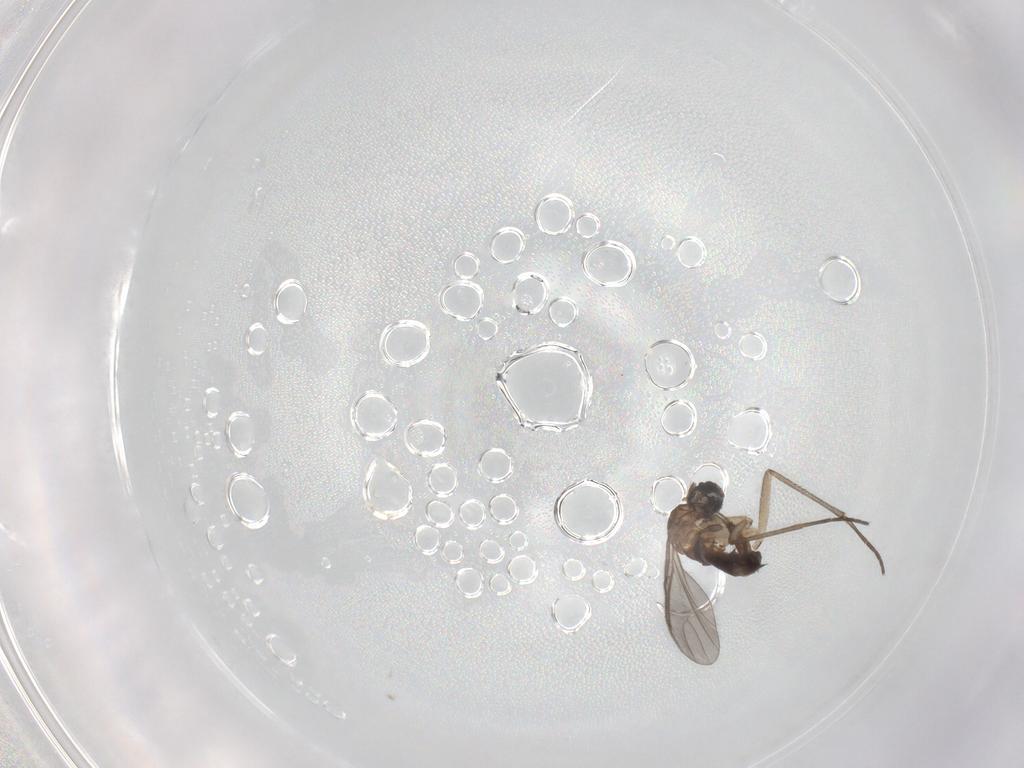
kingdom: Animalia
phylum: Arthropoda
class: Insecta
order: Diptera
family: Sciaridae
